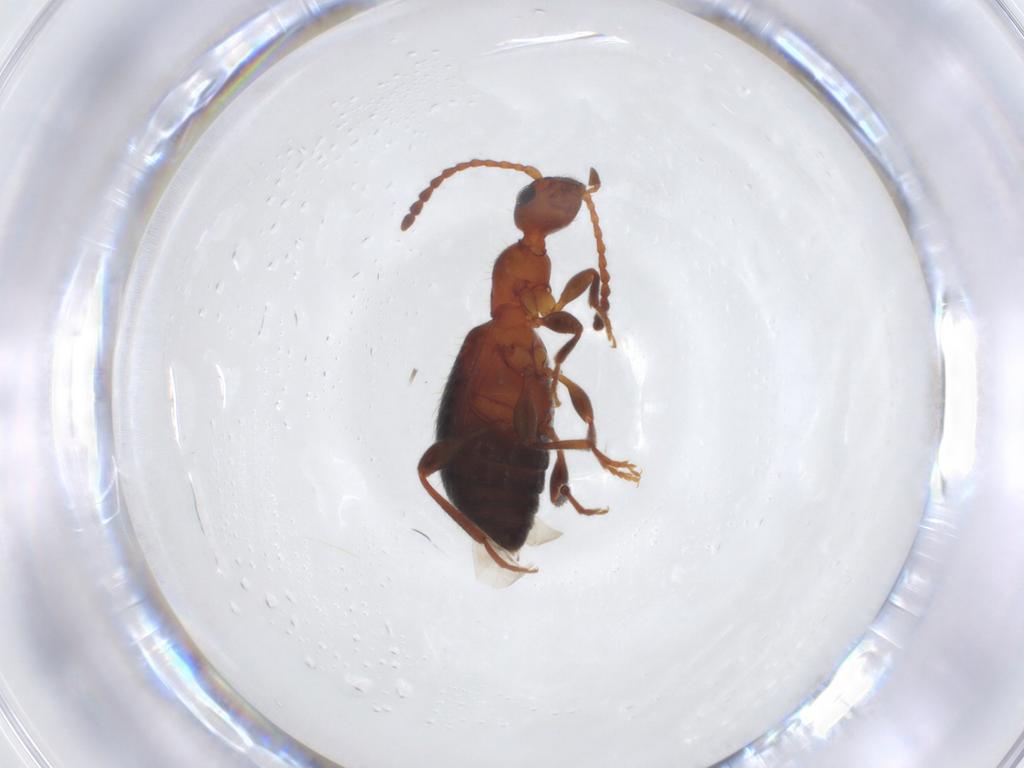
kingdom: Animalia
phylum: Arthropoda
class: Insecta
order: Coleoptera
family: Anthicidae
